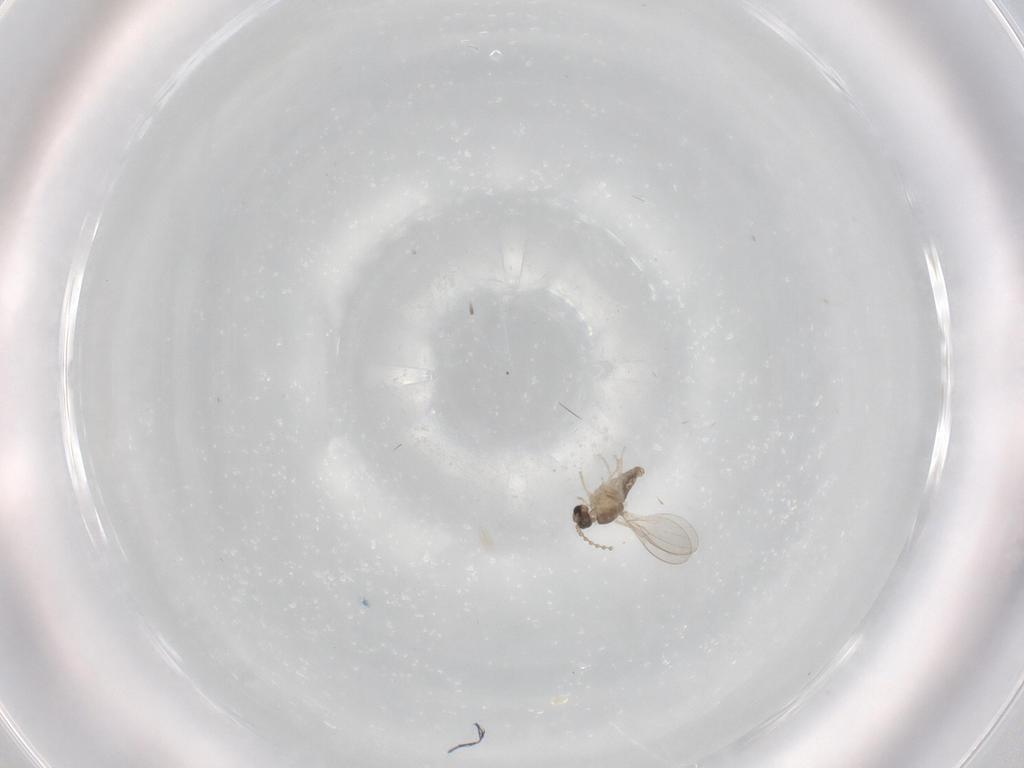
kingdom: Animalia
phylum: Arthropoda
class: Insecta
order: Diptera
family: Cecidomyiidae
